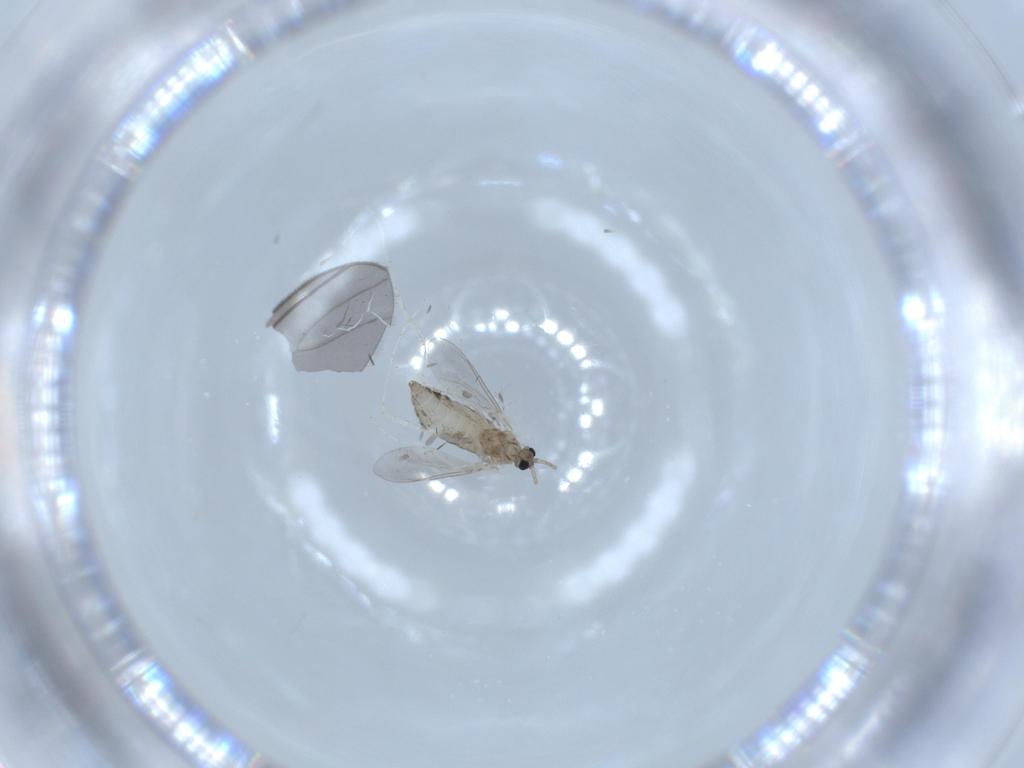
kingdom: Animalia
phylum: Arthropoda
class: Insecta
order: Diptera
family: Cecidomyiidae
